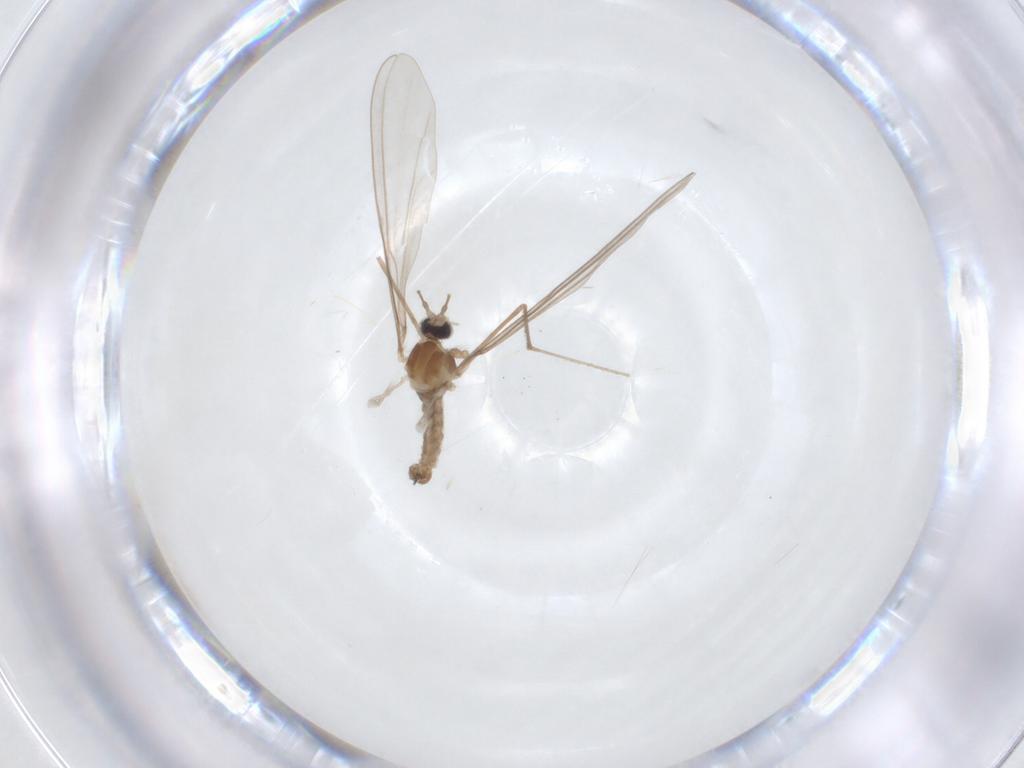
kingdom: Animalia
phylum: Arthropoda
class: Insecta
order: Diptera
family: Cecidomyiidae
